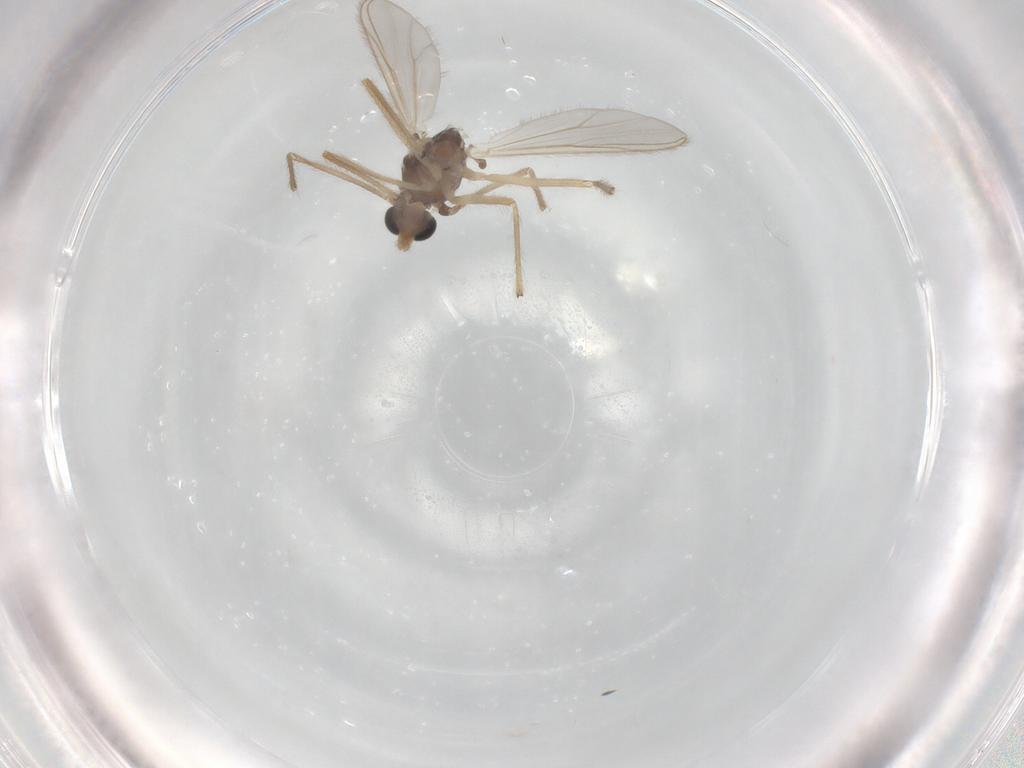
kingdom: Animalia
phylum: Arthropoda
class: Insecta
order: Diptera
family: Chironomidae
